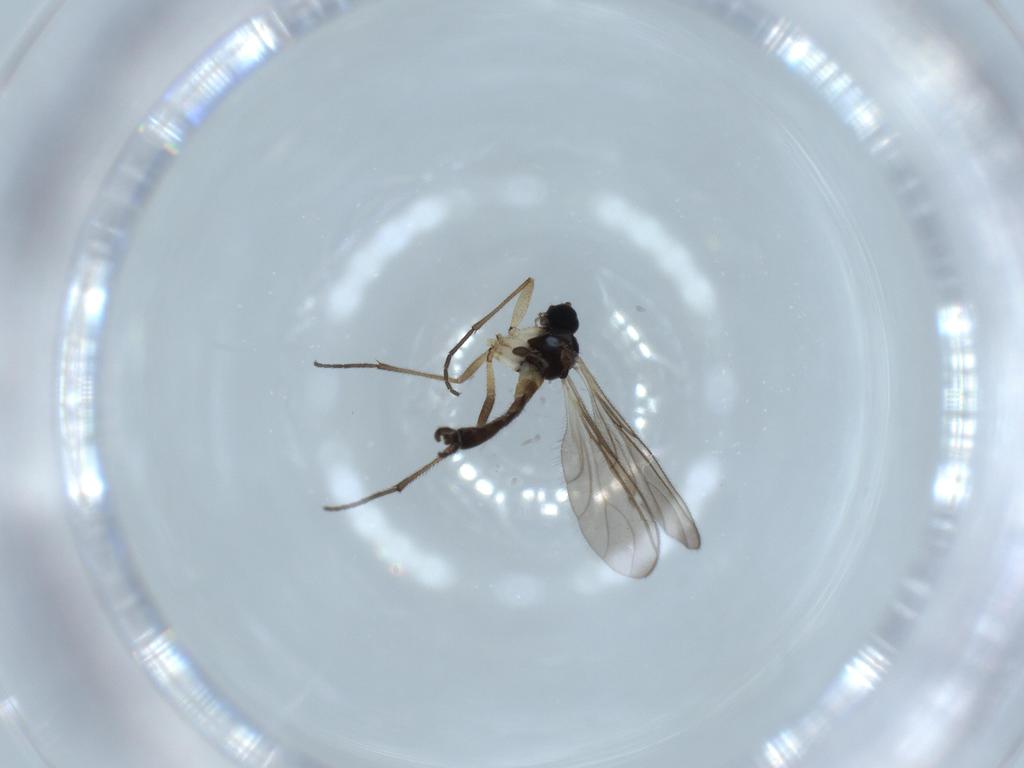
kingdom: Animalia
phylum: Arthropoda
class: Insecta
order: Diptera
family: Sciaridae
